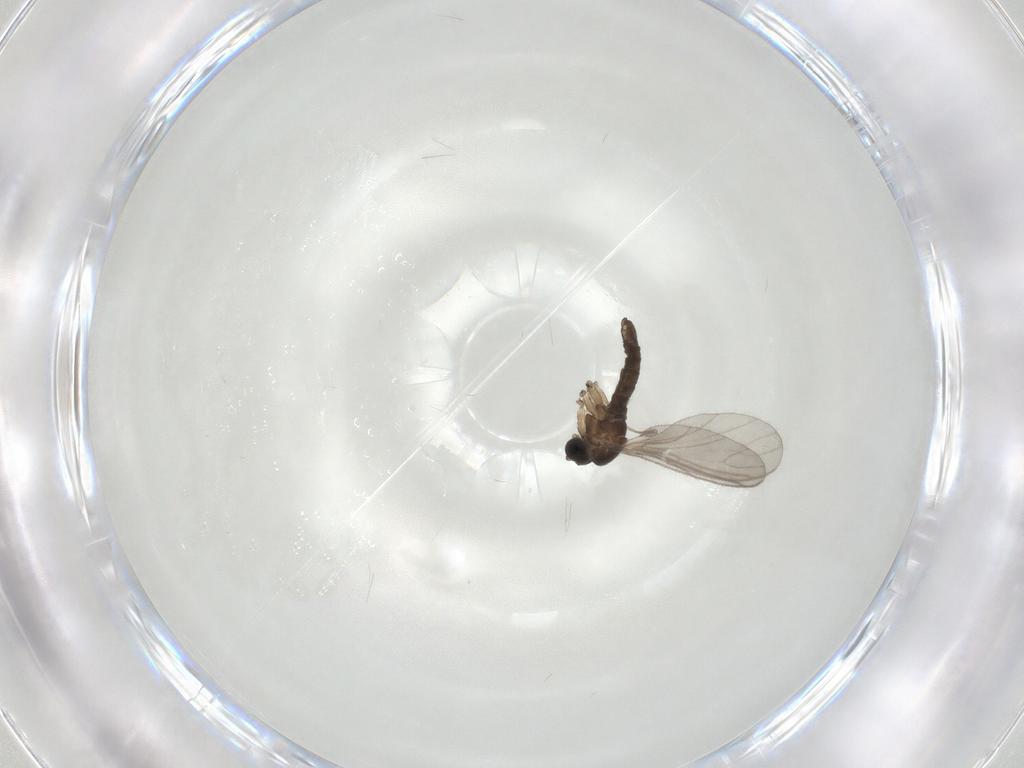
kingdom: Animalia
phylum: Arthropoda
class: Insecta
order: Diptera
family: Sciaridae
